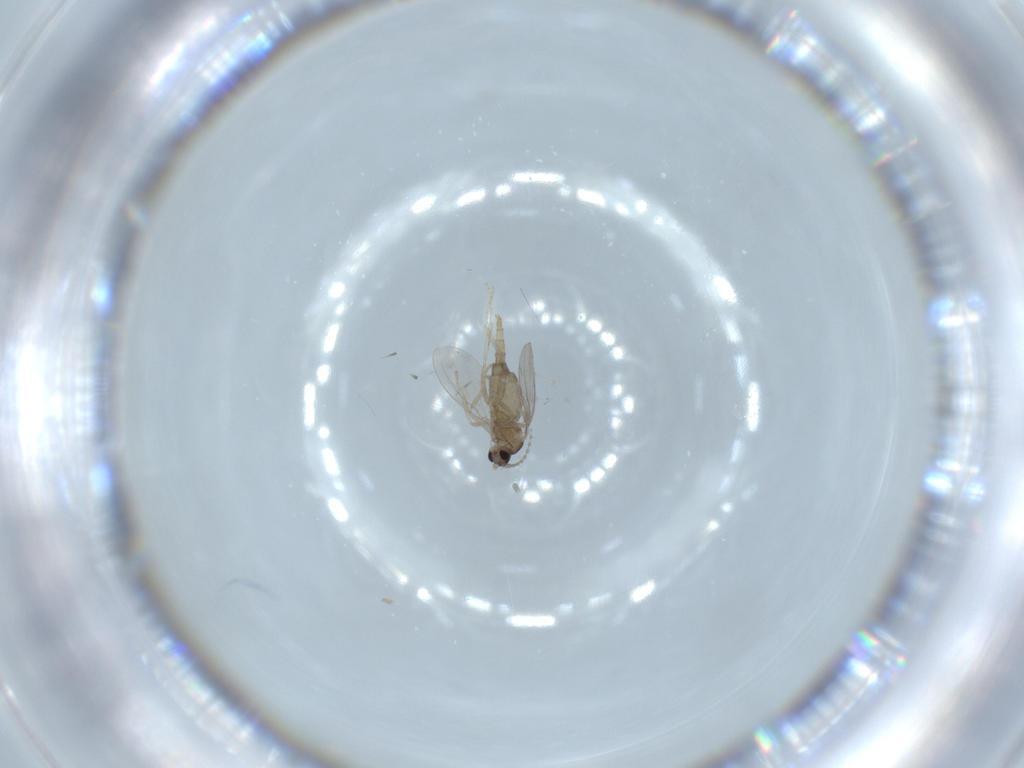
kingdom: Animalia
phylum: Arthropoda
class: Insecta
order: Diptera
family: Cecidomyiidae
